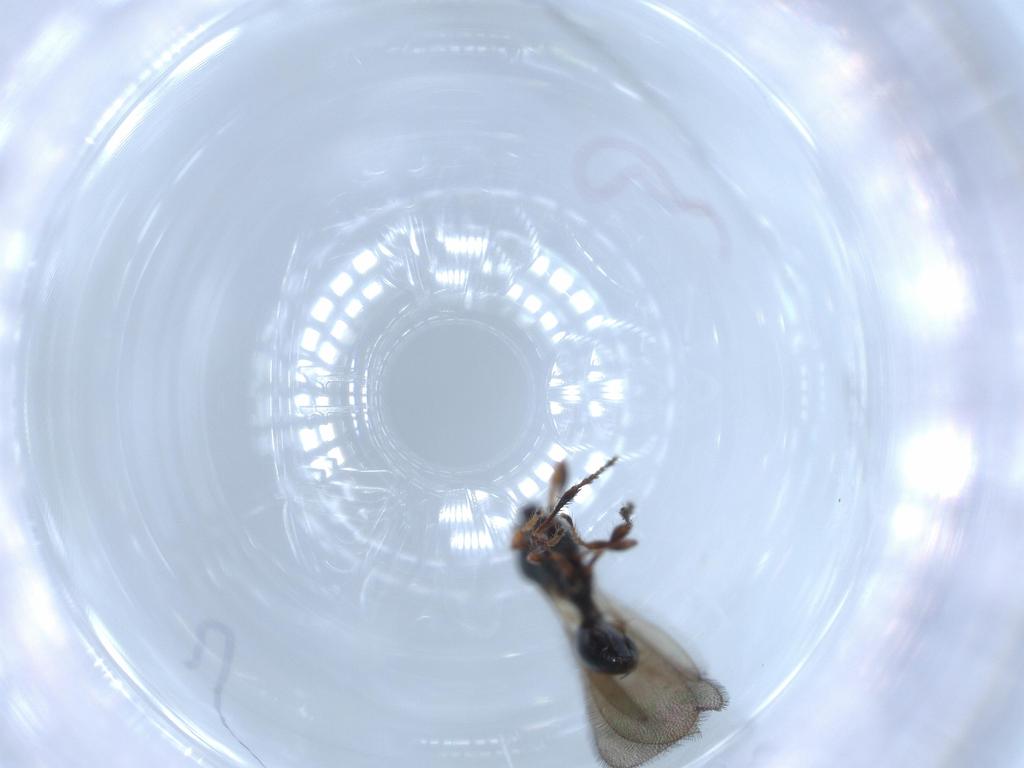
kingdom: Animalia
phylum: Arthropoda
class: Insecta
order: Hymenoptera
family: Diapriidae
